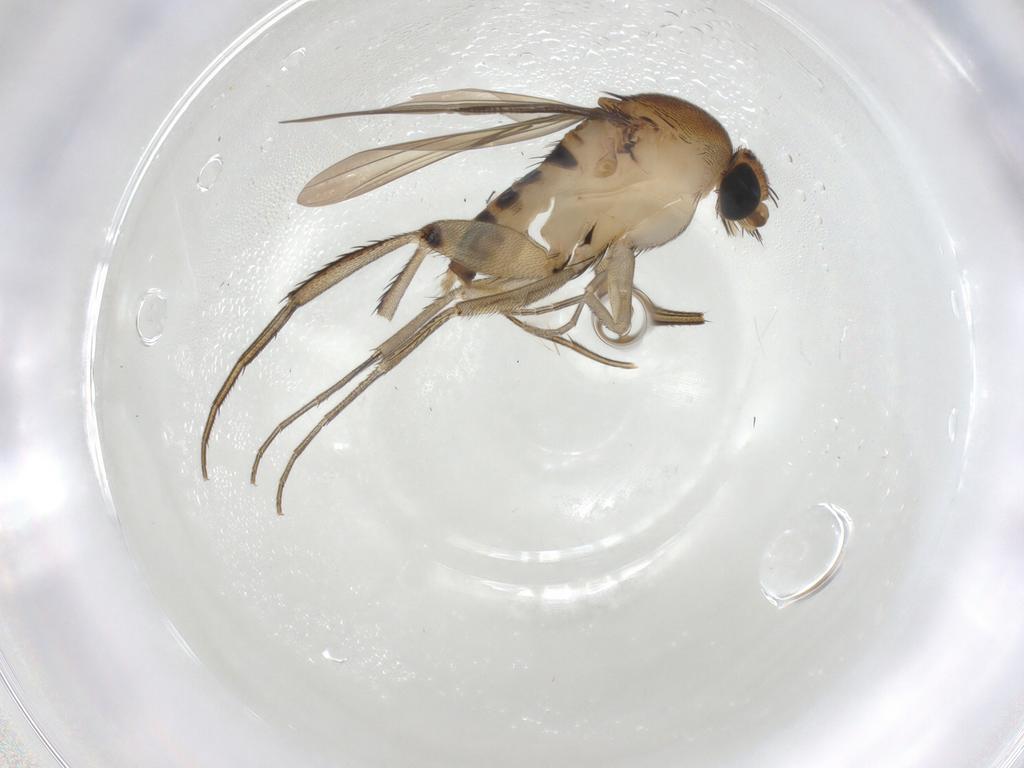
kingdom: Animalia
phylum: Arthropoda
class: Insecta
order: Diptera
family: Phoridae
